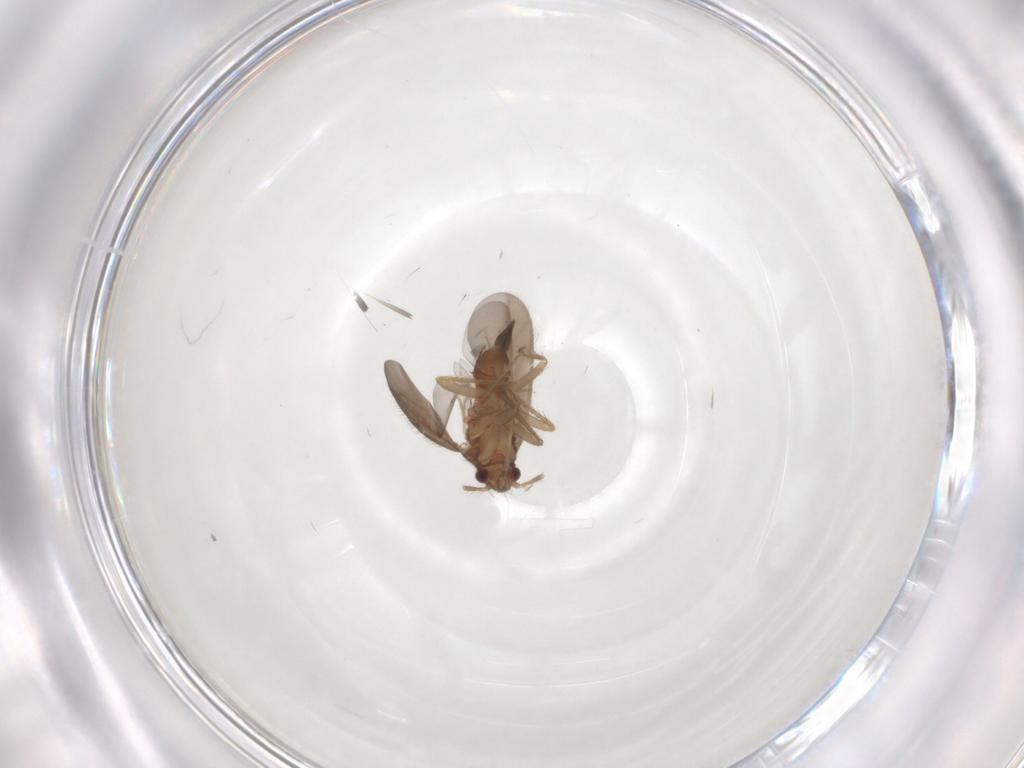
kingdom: Animalia
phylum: Arthropoda
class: Insecta
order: Hemiptera
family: Ceratocombidae
